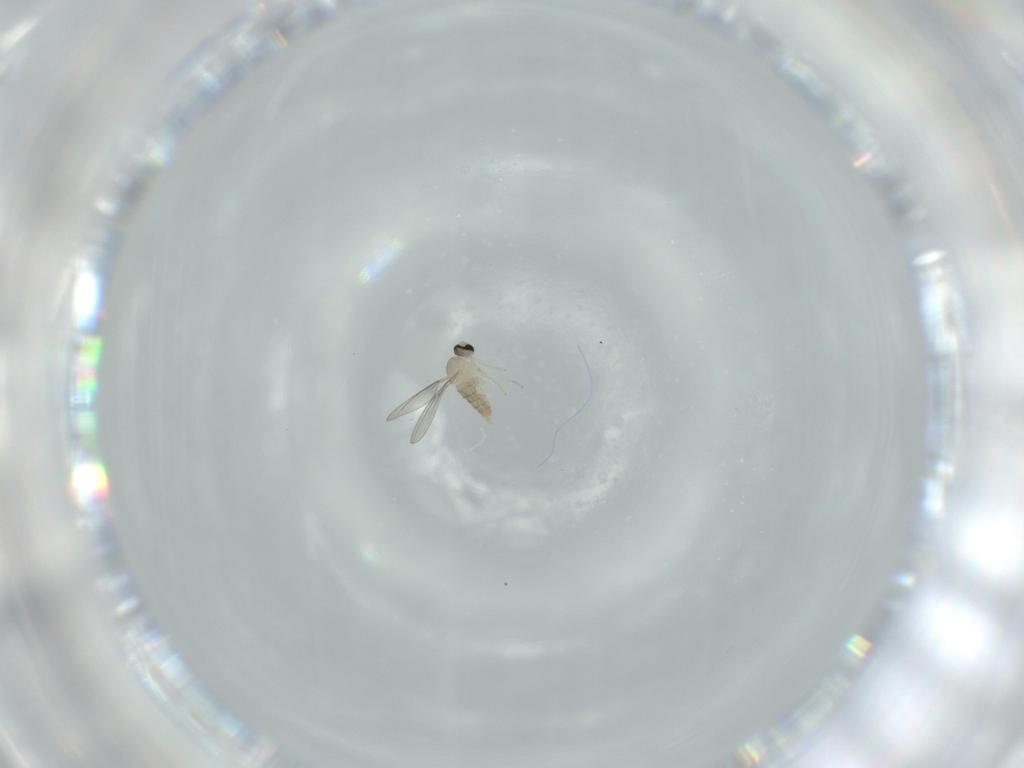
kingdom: Animalia
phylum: Arthropoda
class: Insecta
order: Diptera
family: Cecidomyiidae
